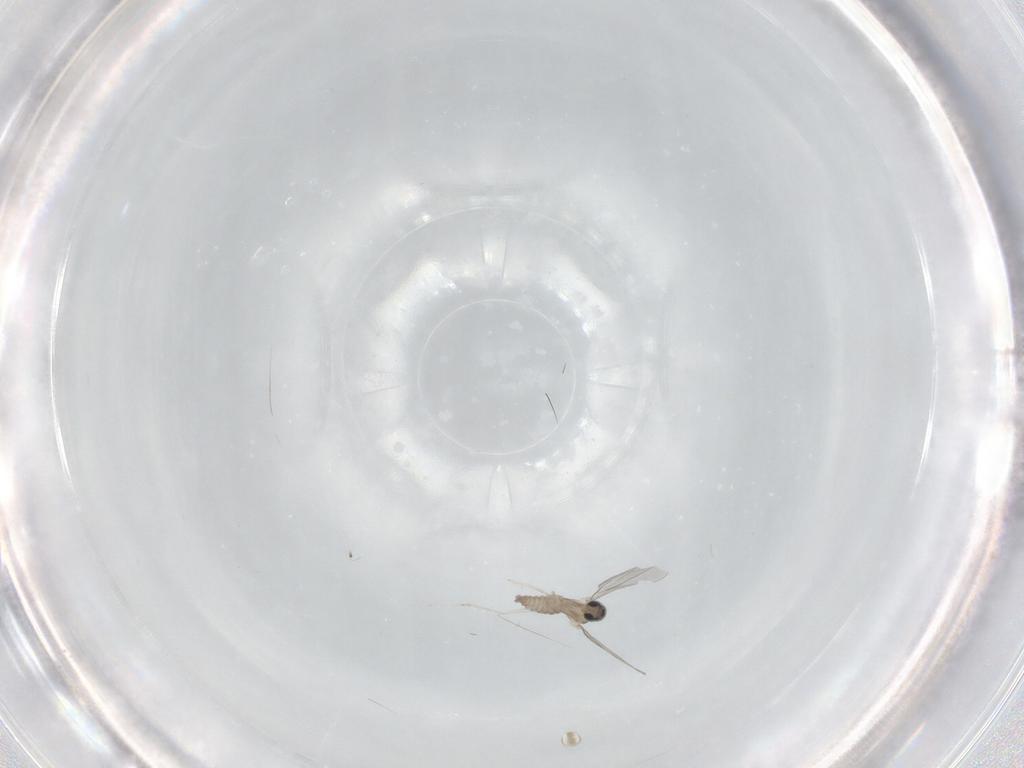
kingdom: Animalia
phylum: Arthropoda
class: Insecta
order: Diptera
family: Cecidomyiidae
